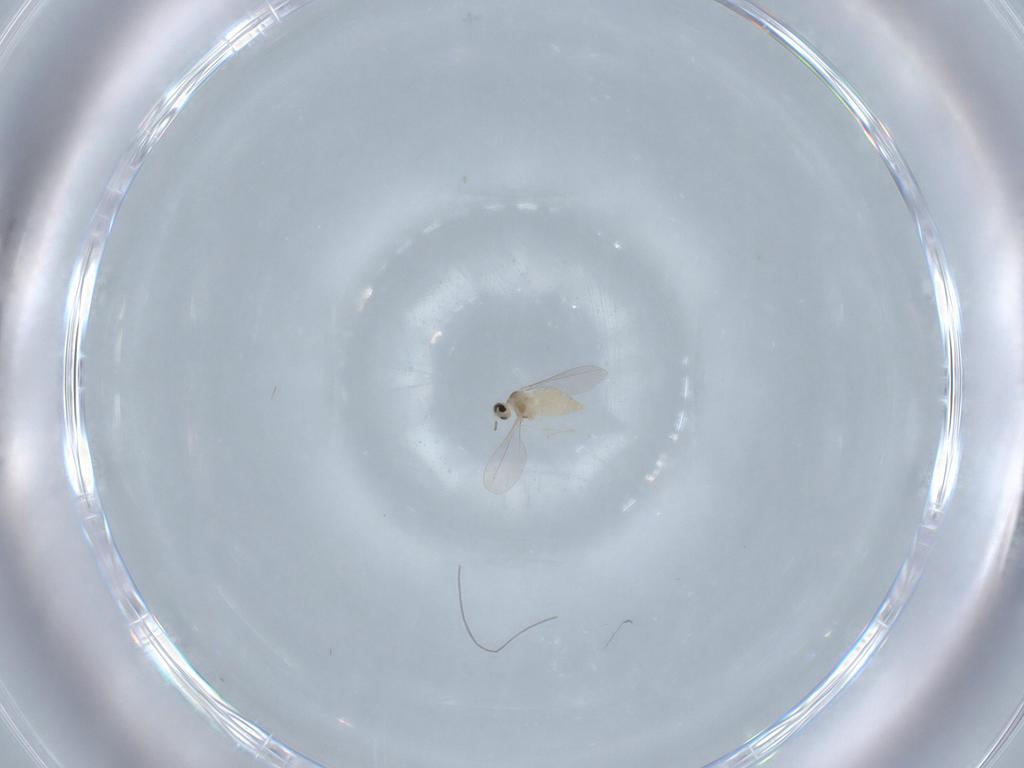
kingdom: Animalia
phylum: Arthropoda
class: Insecta
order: Diptera
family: Cecidomyiidae
